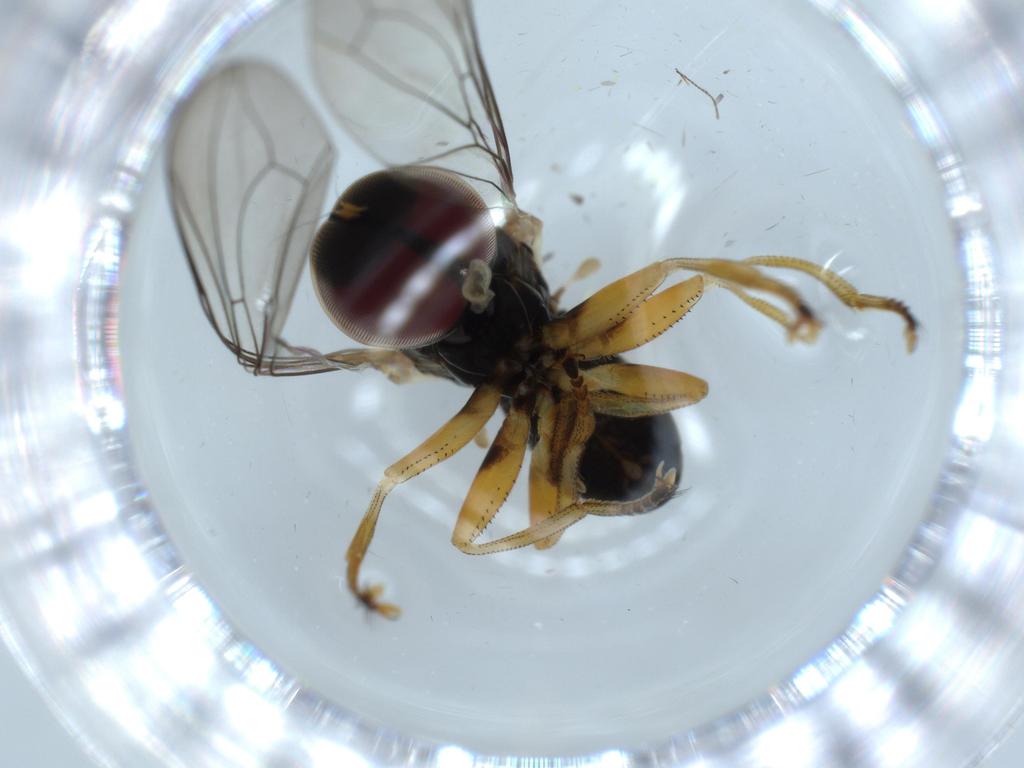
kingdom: Animalia
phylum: Arthropoda
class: Insecta
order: Diptera
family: Sciaridae
